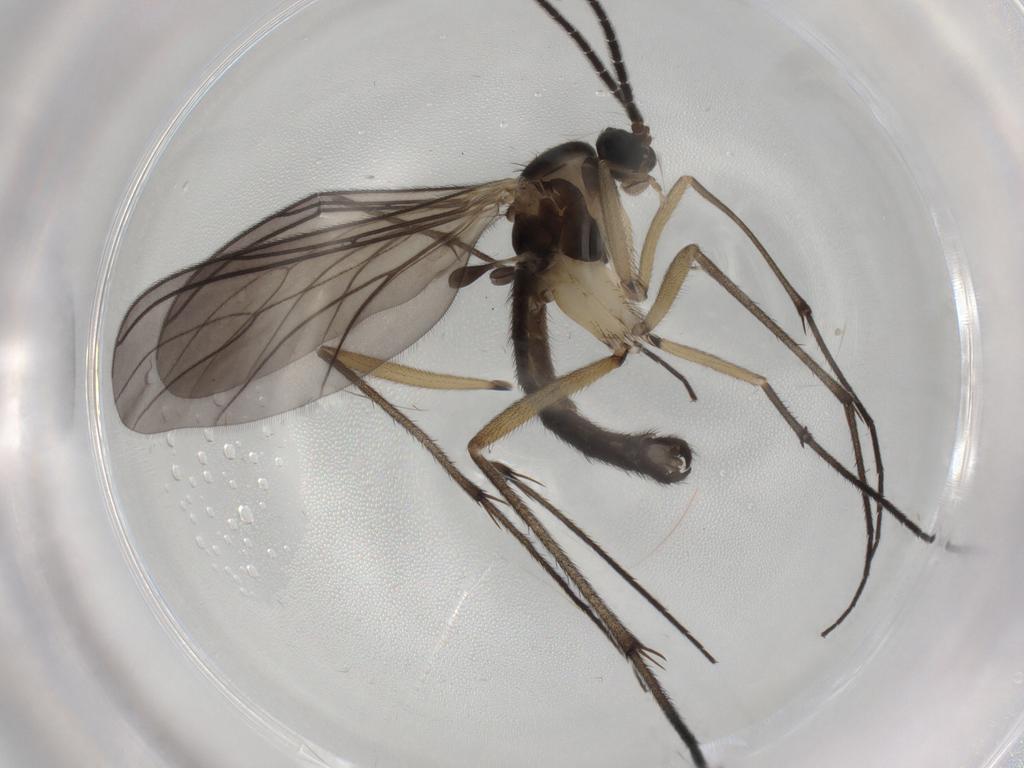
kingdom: Animalia
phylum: Arthropoda
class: Insecta
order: Diptera
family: Sciaridae
